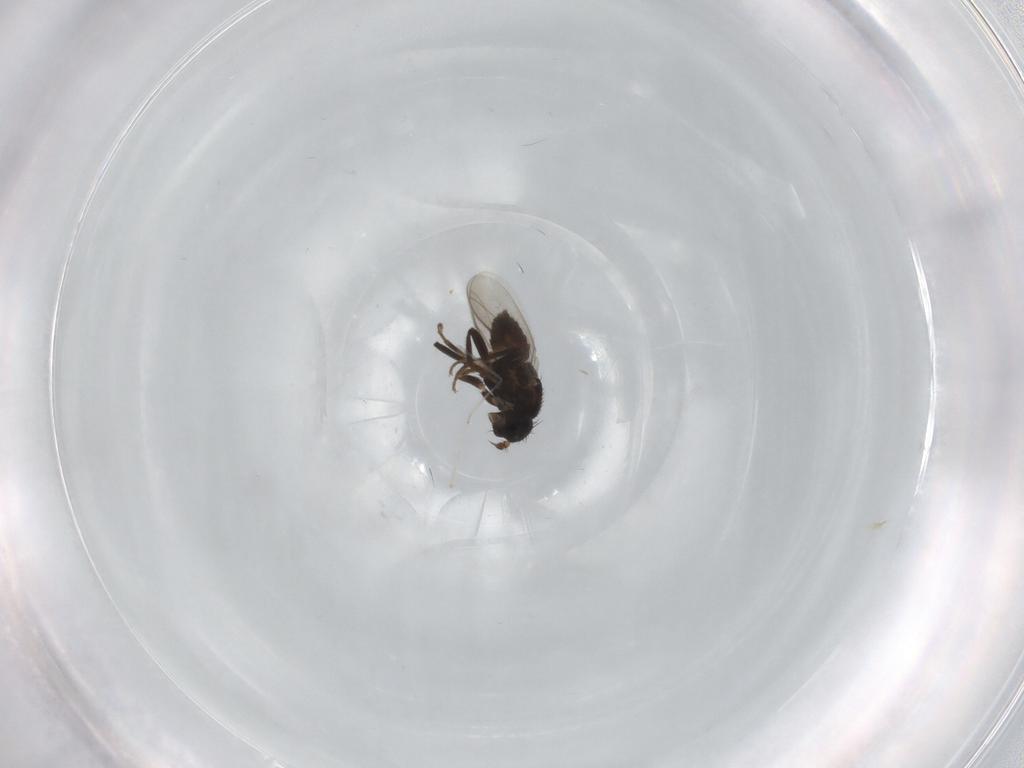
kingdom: Animalia
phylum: Arthropoda
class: Insecta
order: Diptera
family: Sphaeroceridae
